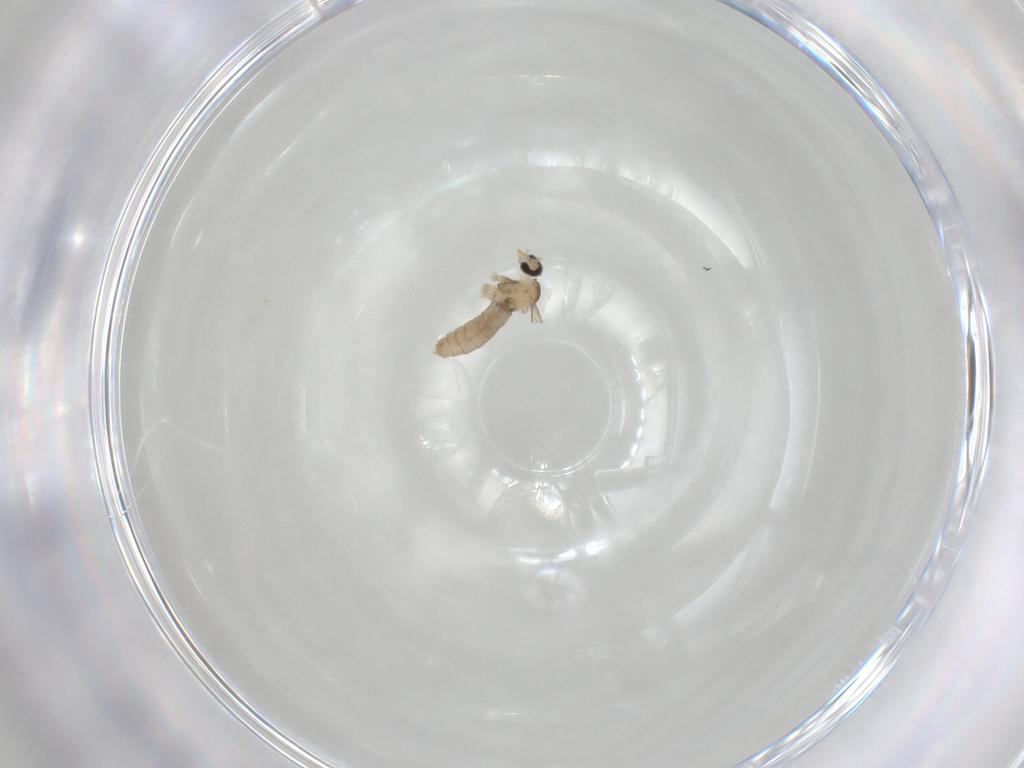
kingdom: Animalia
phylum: Arthropoda
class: Insecta
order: Diptera
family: Cecidomyiidae
